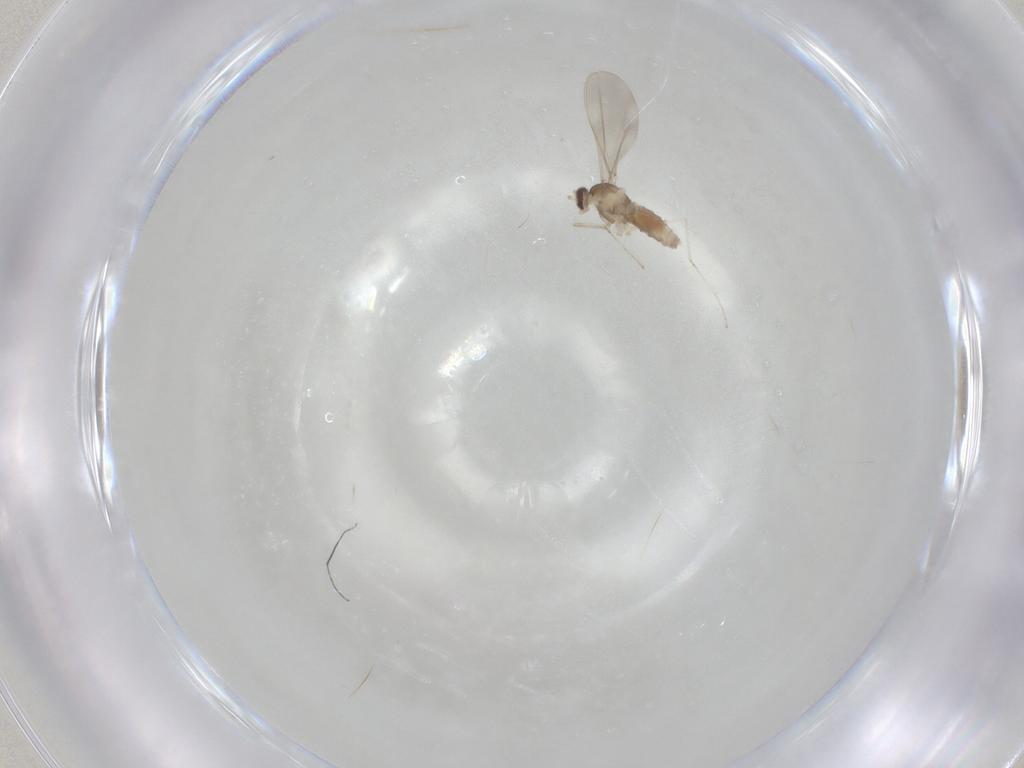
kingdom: Animalia
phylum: Arthropoda
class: Insecta
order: Diptera
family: Cecidomyiidae
